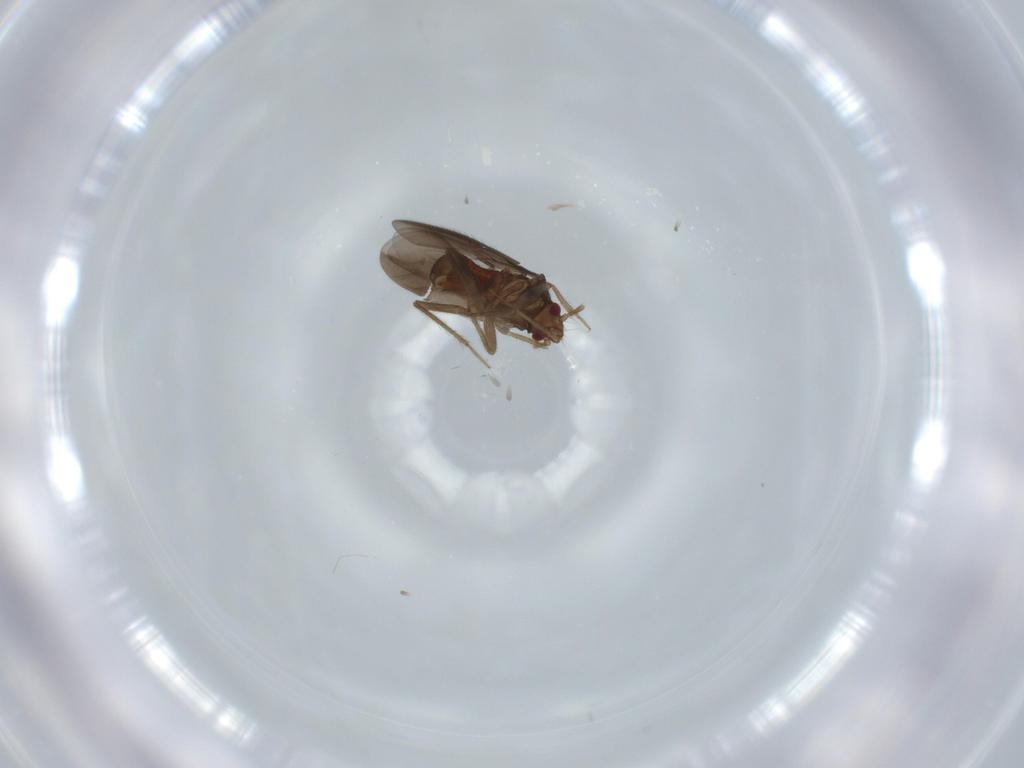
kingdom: Animalia
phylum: Arthropoda
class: Insecta
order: Hemiptera
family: Ceratocombidae
